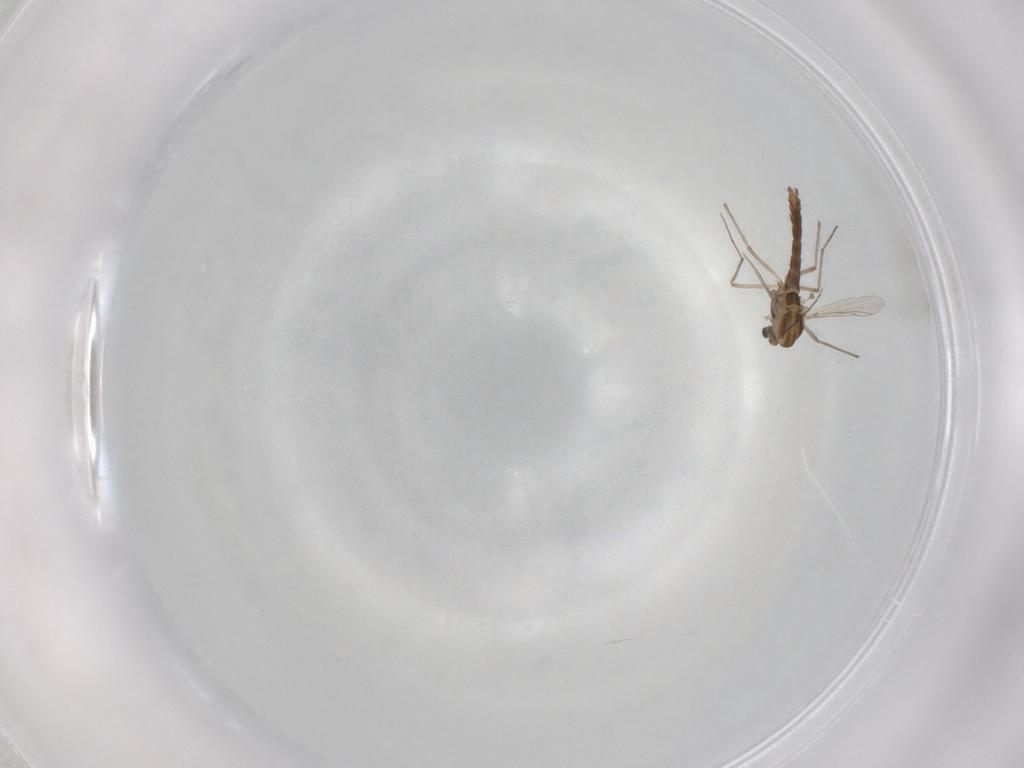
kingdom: Animalia
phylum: Arthropoda
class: Insecta
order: Diptera
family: Chironomidae
